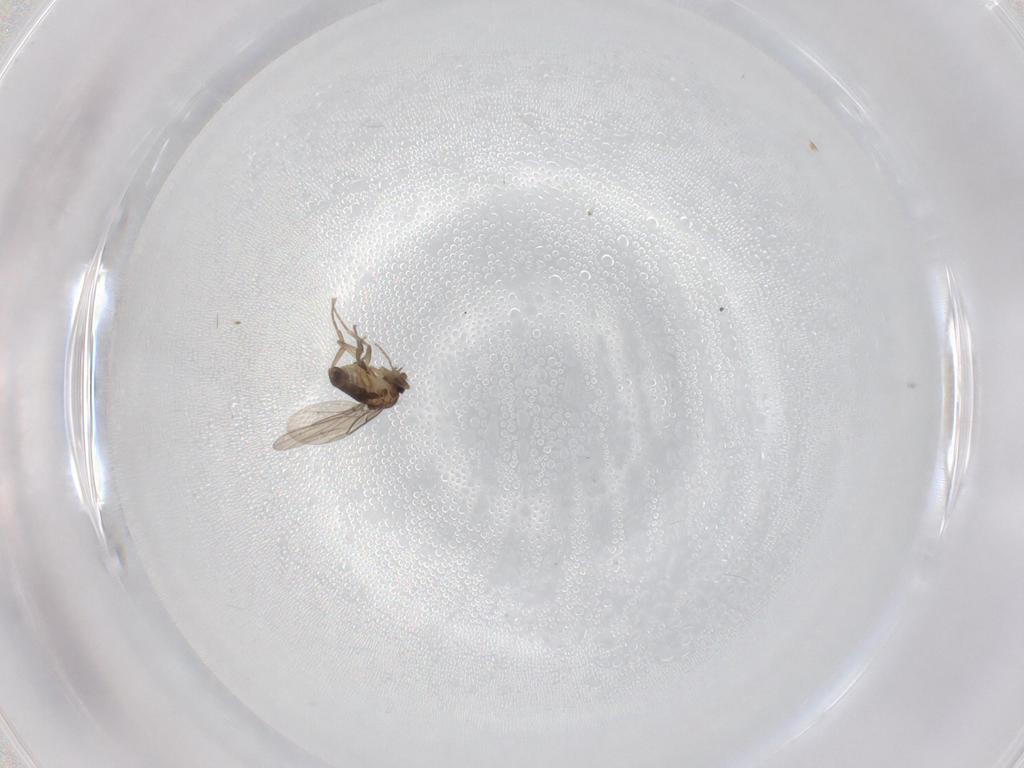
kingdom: Animalia
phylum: Arthropoda
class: Insecta
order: Diptera
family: Phoridae
